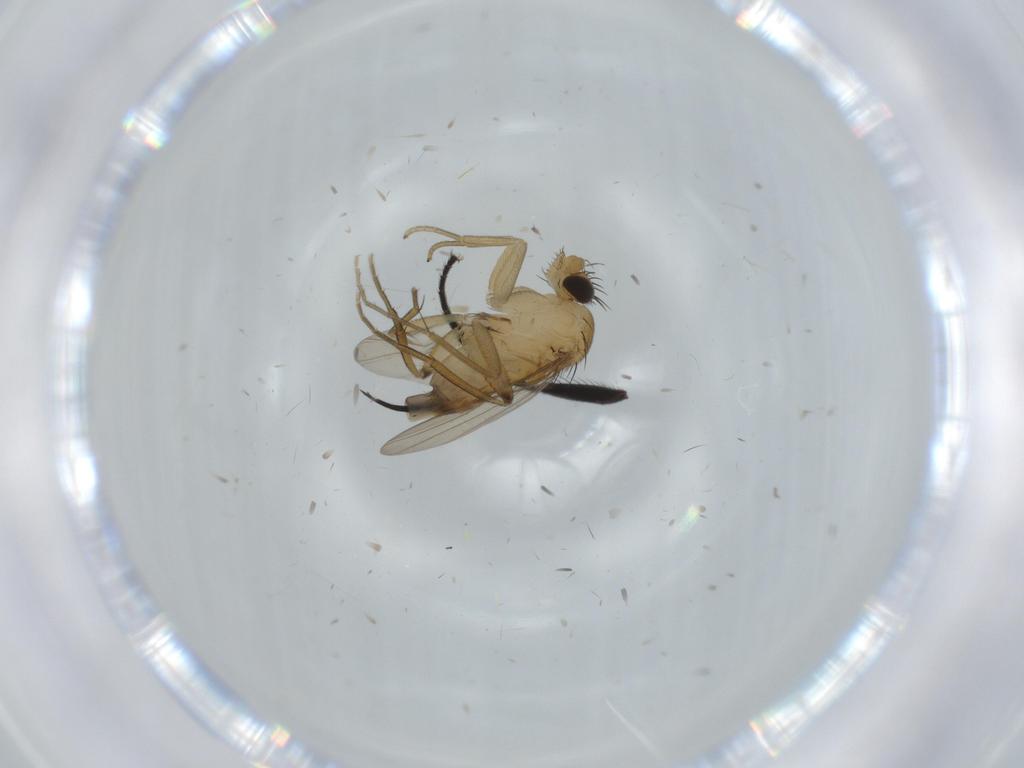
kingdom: Animalia
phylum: Arthropoda
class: Insecta
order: Diptera
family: Phoridae
